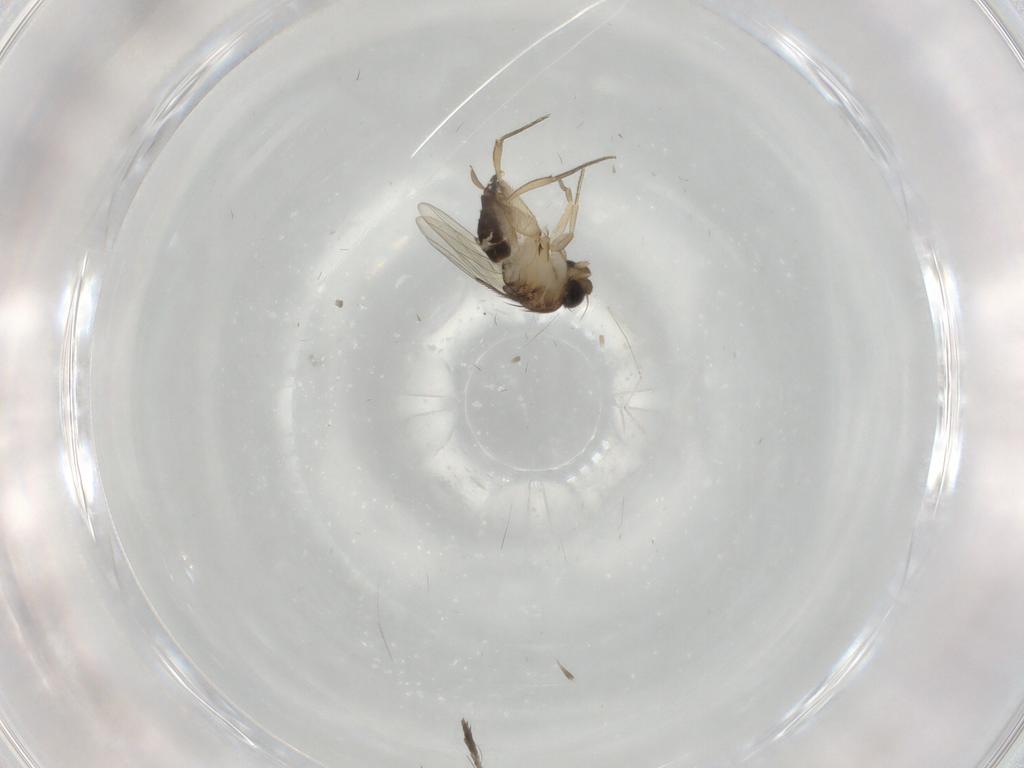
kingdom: Animalia
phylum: Arthropoda
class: Insecta
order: Diptera
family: Cecidomyiidae
